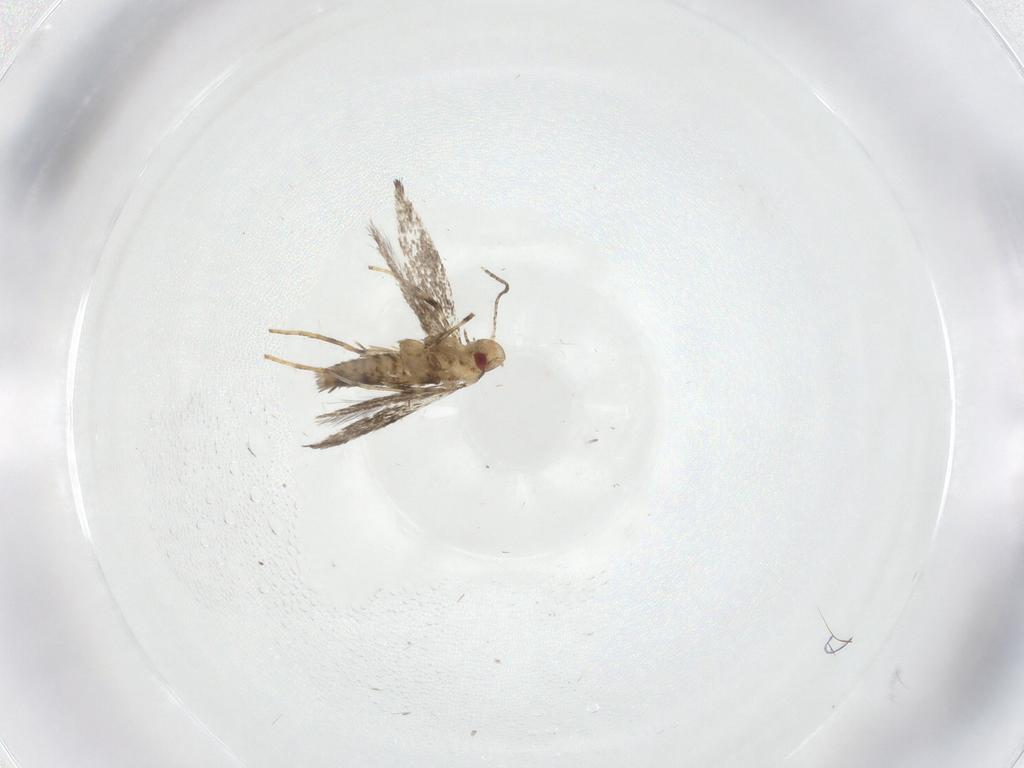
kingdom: Animalia
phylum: Arthropoda
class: Insecta
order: Lepidoptera
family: Gracillariidae
